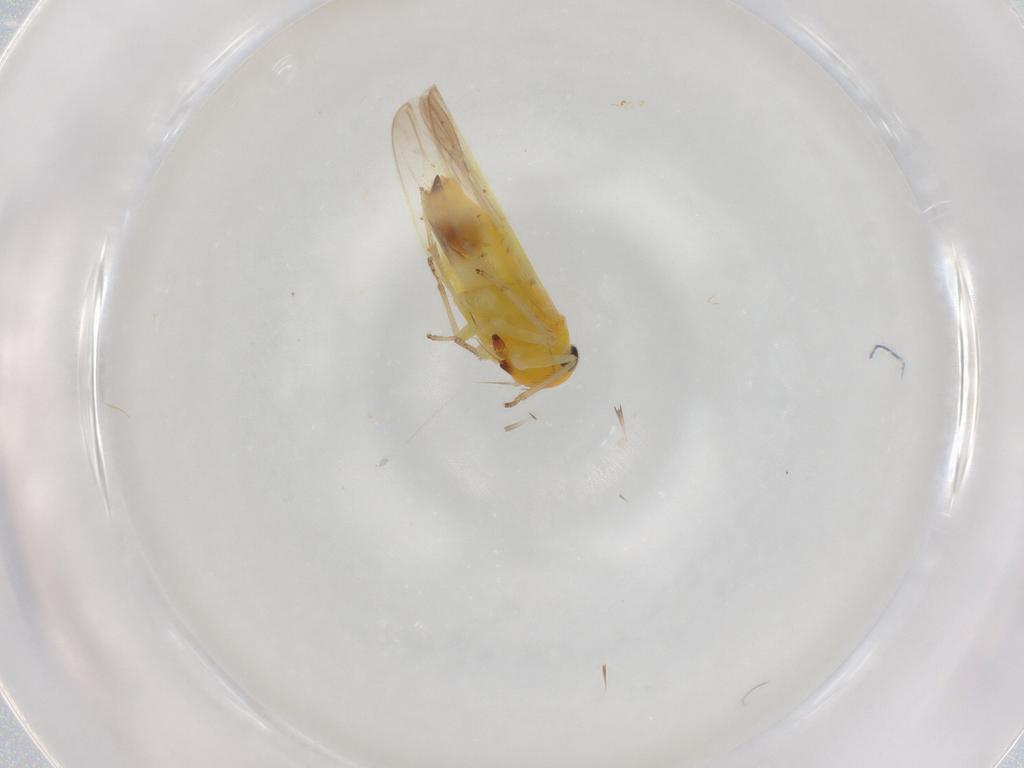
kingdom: Animalia
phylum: Arthropoda
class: Insecta
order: Hemiptera
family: Cicadellidae
